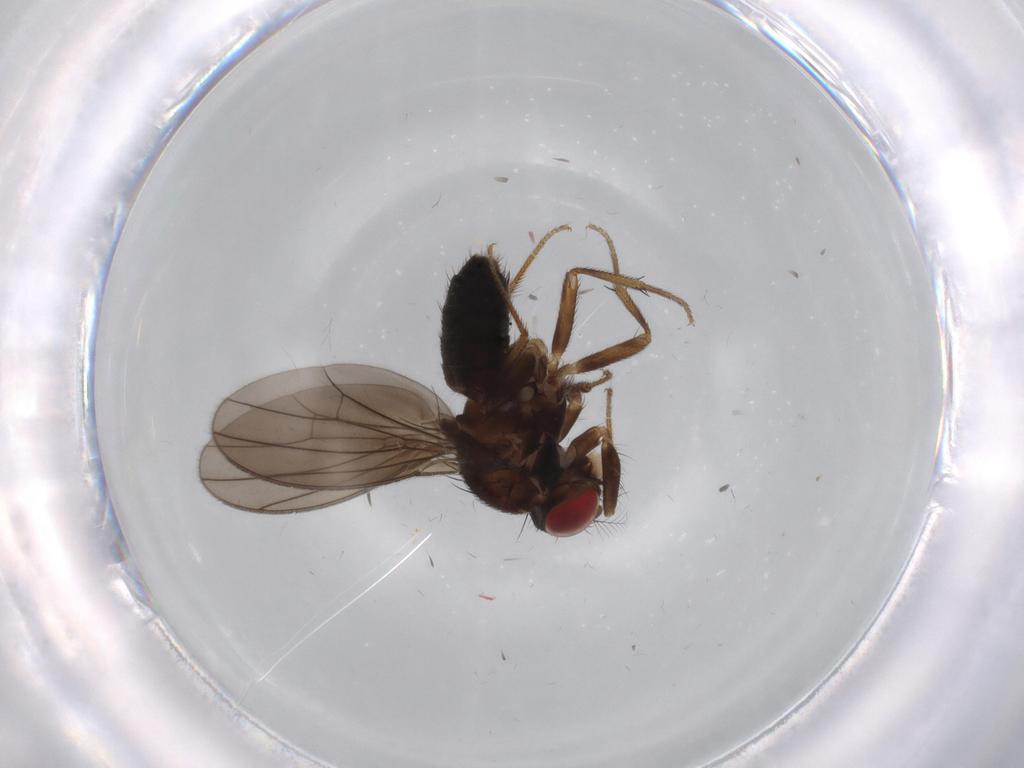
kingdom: Animalia
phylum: Arthropoda
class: Insecta
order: Diptera
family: Drosophilidae
